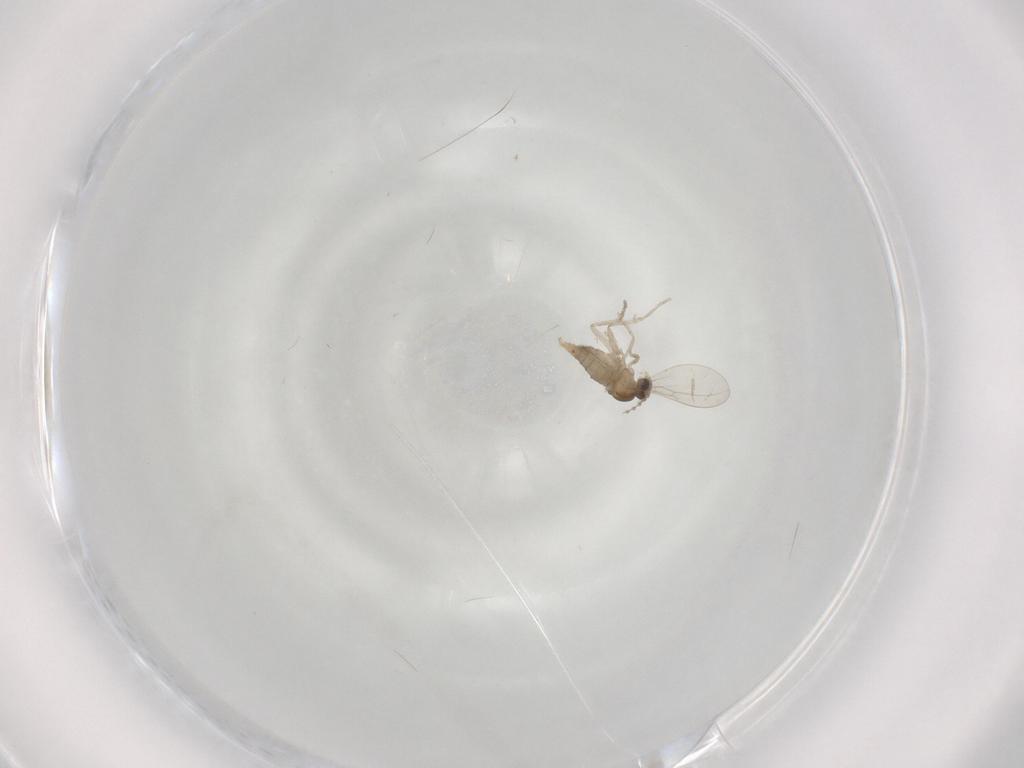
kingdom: Animalia
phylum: Arthropoda
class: Insecta
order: Diptera
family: Cecidomyiidae
